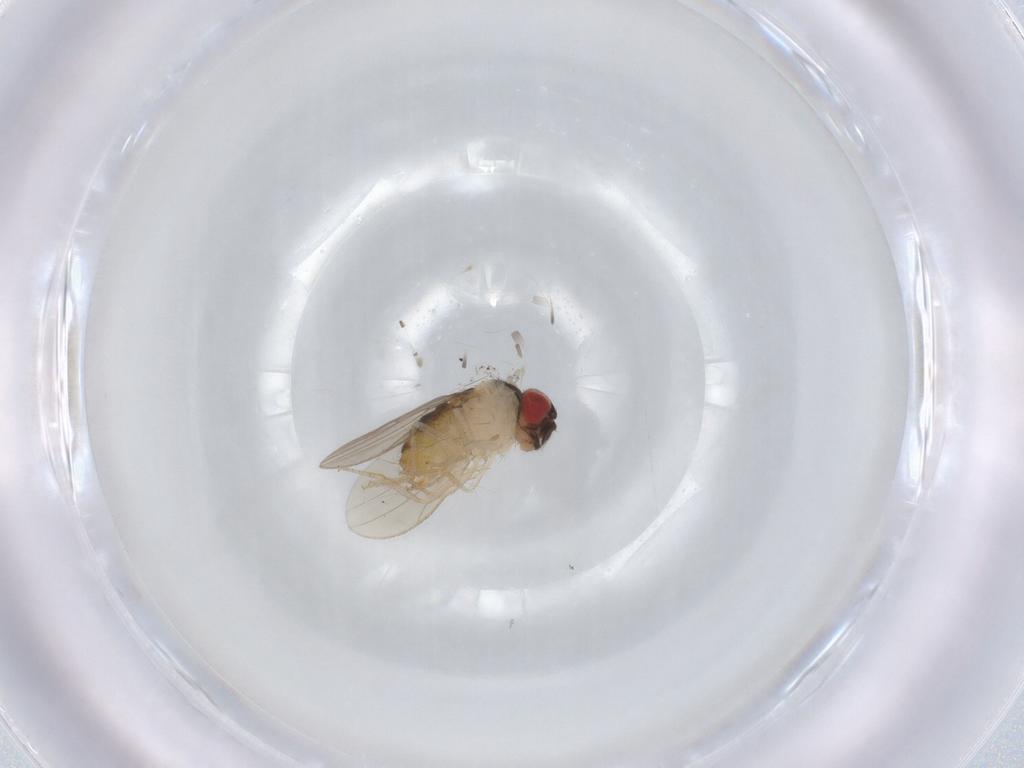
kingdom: Animalia
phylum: Arthropoda
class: Insecta
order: Diptera
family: Drosophilidae
